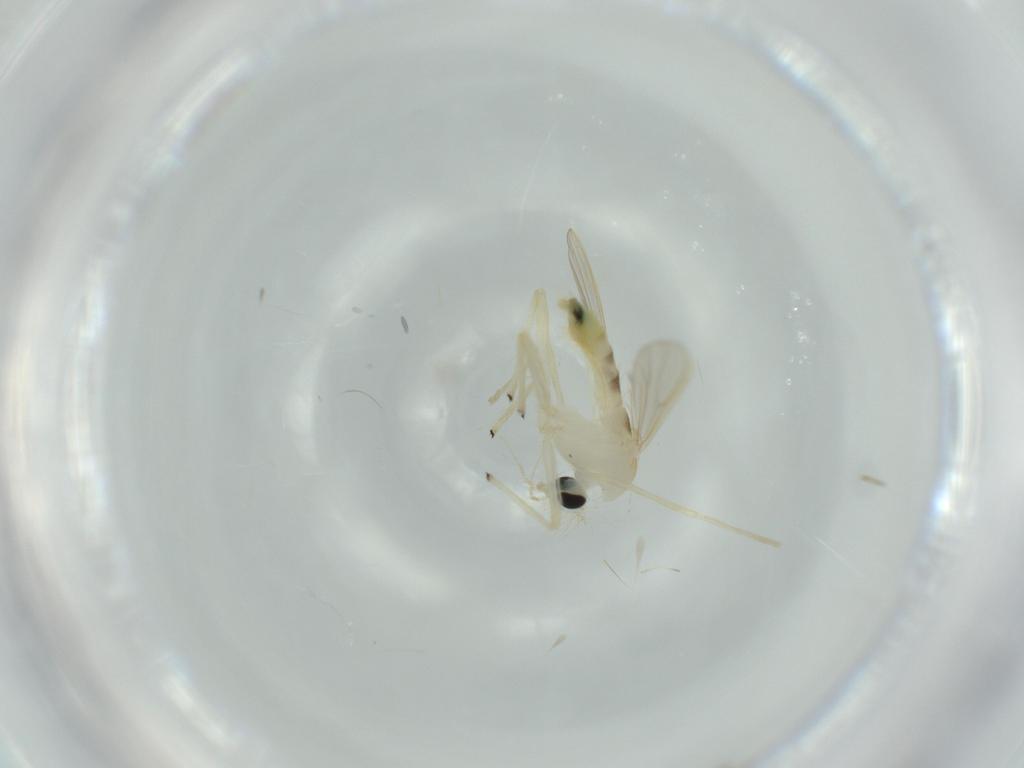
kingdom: Animalia
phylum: Arthropoda
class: Insecta
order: Diptera
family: Chironomidae
